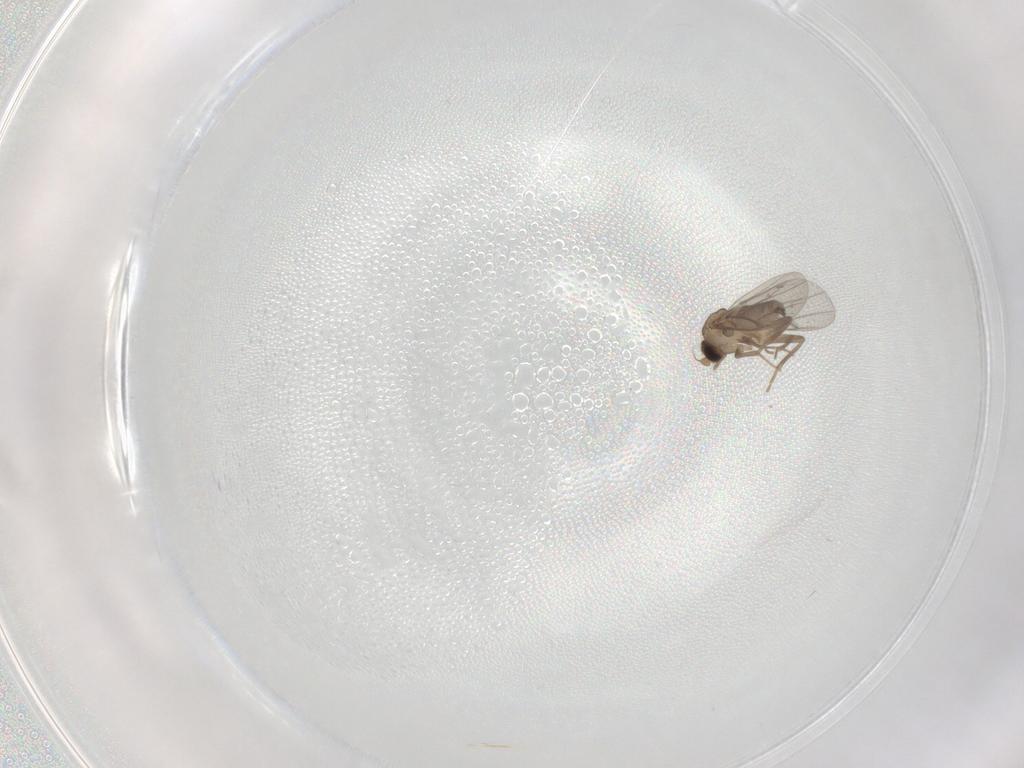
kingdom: Animalia
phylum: Arthropoda
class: Insecta
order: Diptera
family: Psychodidae
